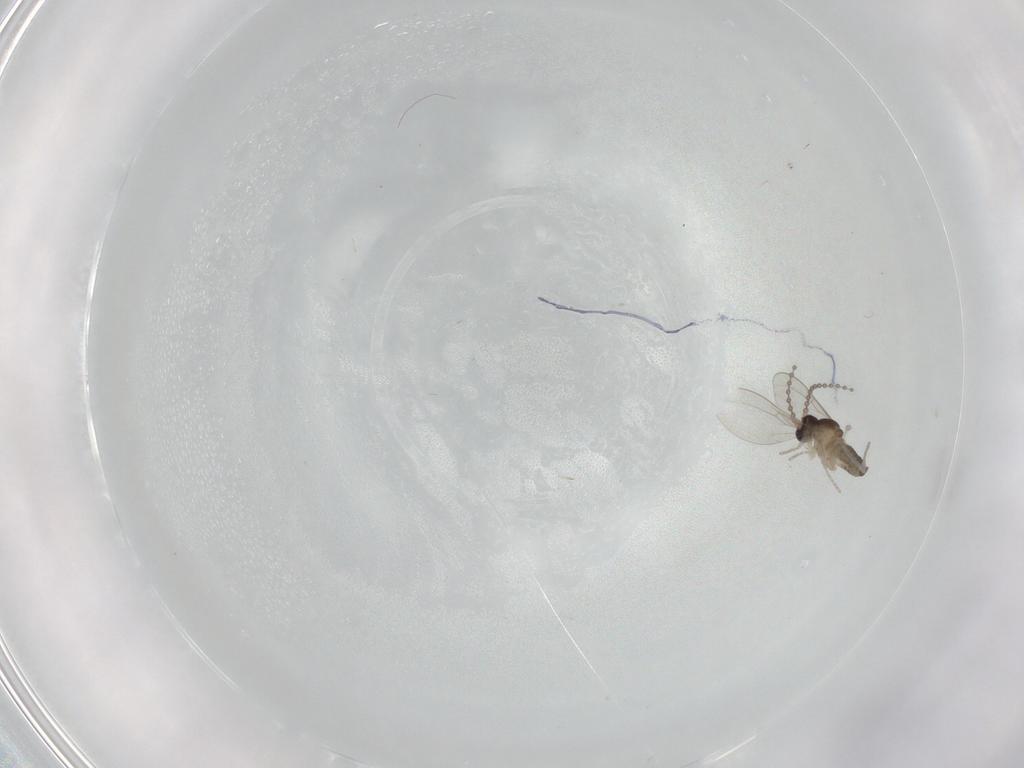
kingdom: Animalia
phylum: Arthropoda
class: Insecta
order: Diptera
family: Cecidomyiidae
